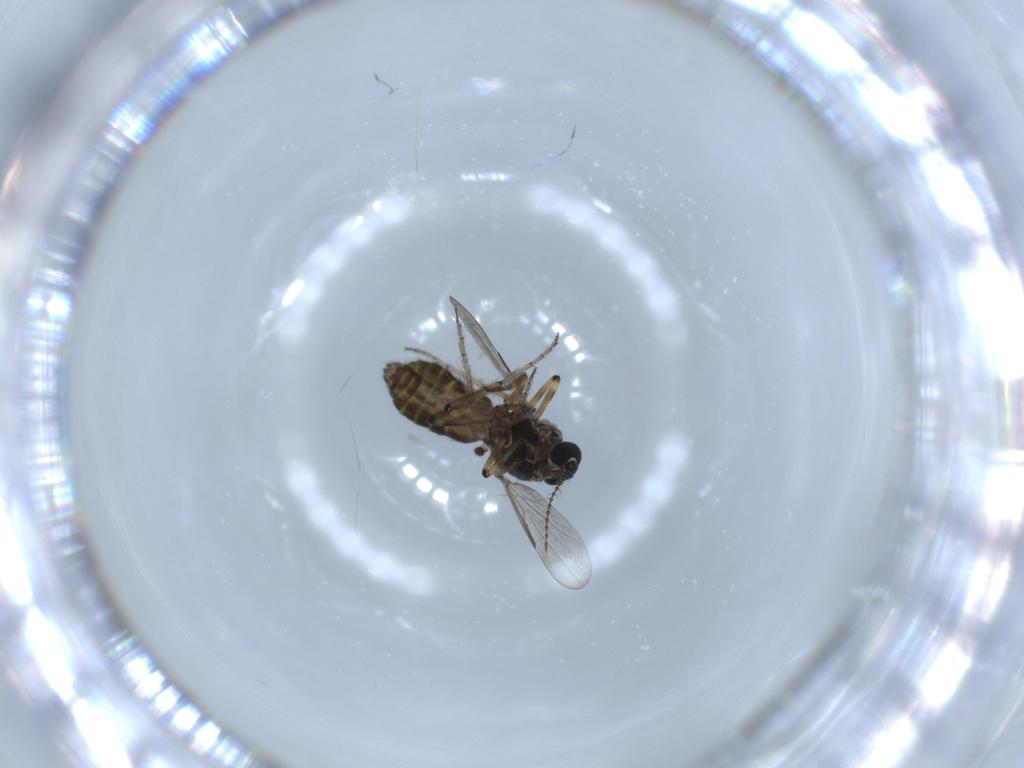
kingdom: Animalia
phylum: Arthropoda
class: Insecta
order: Diptera
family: Ceratopogonidae
